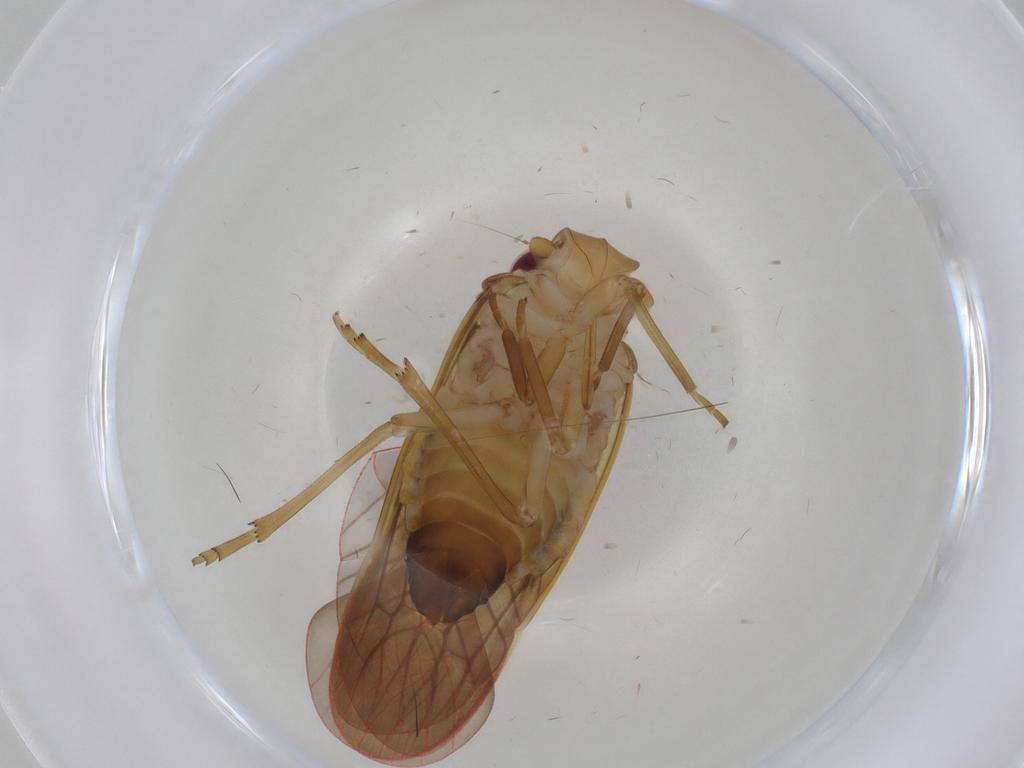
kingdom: Animalia
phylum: Arthropoda
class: Insecta
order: Hemiptera
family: Achilidae
